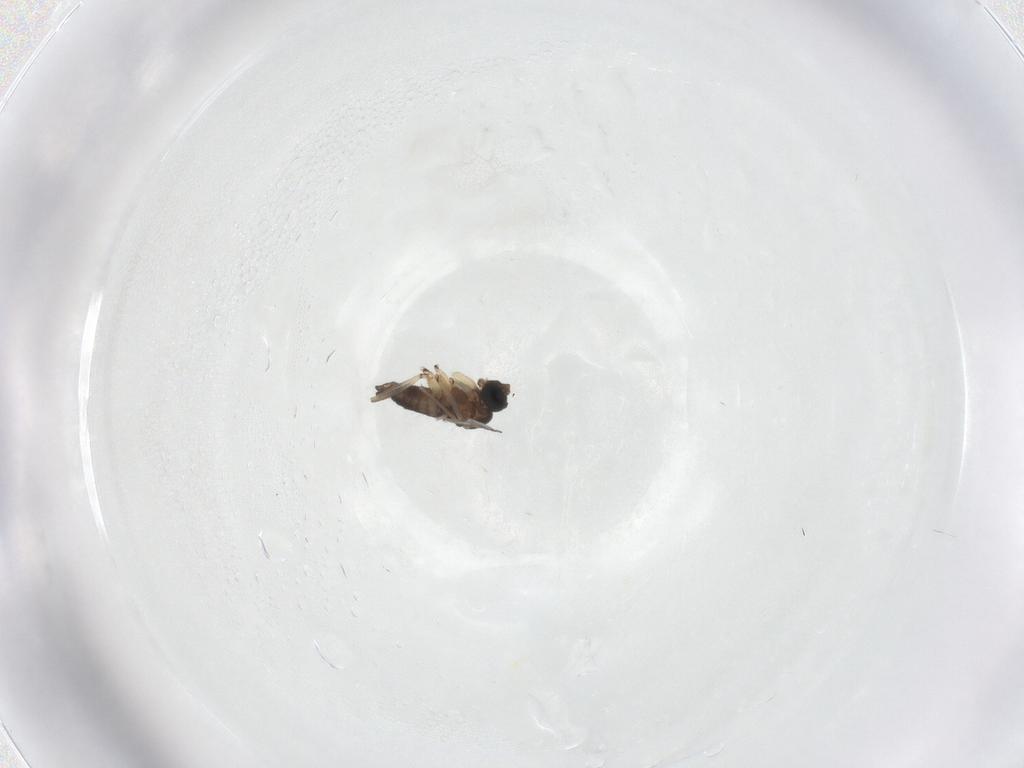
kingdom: Animalia
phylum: Arthropoda
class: Insecta
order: Diptera
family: Sciaridae
